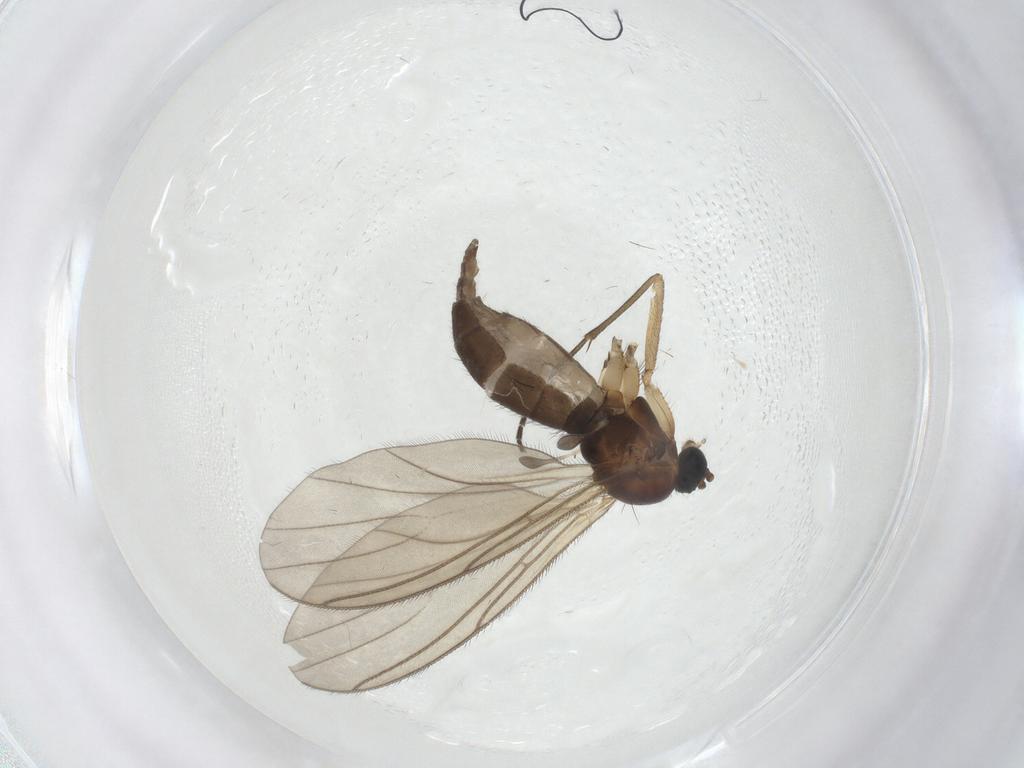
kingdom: Animalia
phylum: Arthropoda
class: Insecta
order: Diptera
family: Sciaridae
